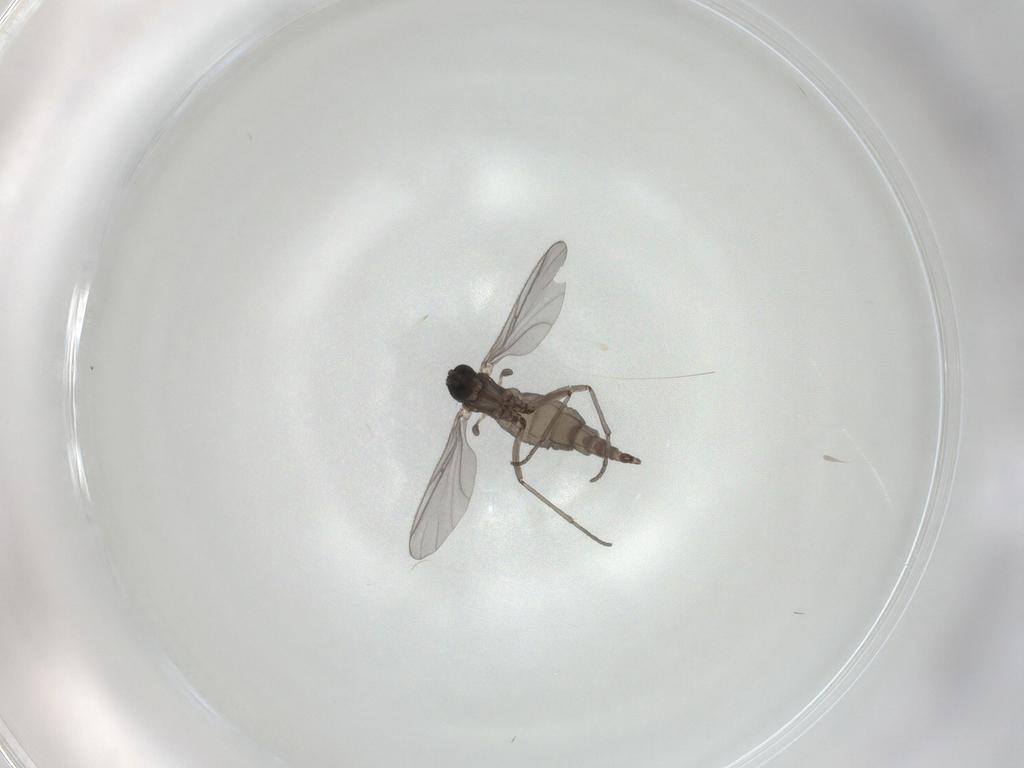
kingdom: Animalia
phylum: Arthropoda
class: Insecta
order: Diptera
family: Cecidomyiidae
